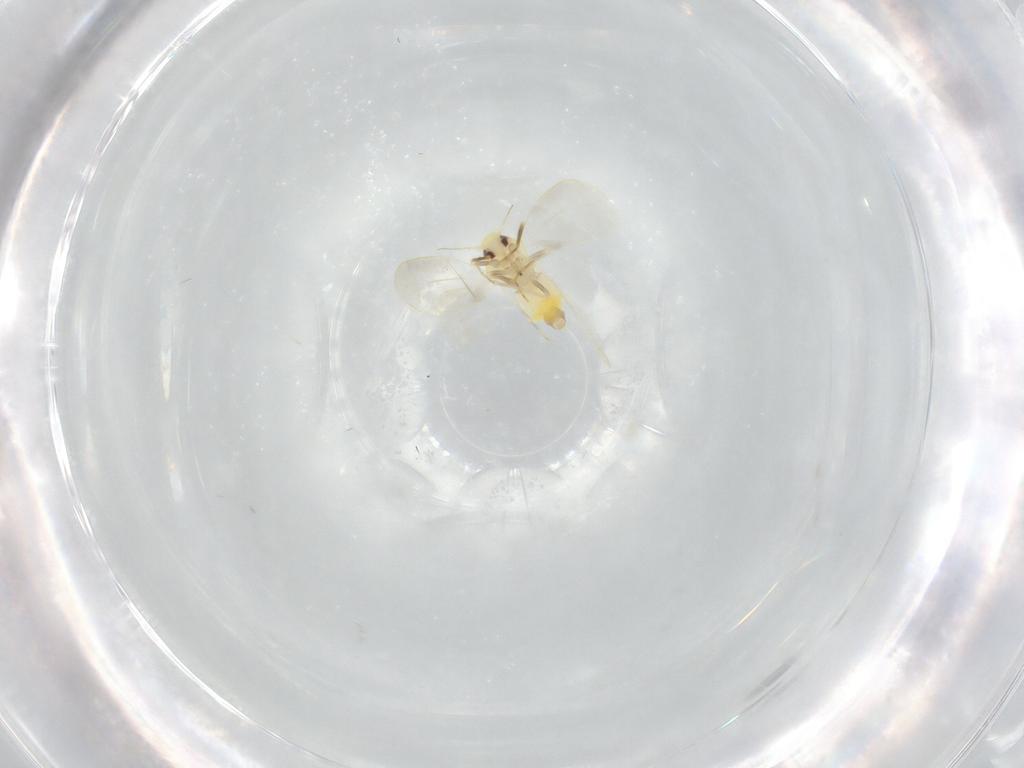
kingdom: Animalia
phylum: Arthropoda
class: Insecta
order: Hemiptera
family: Aleyrodidae
